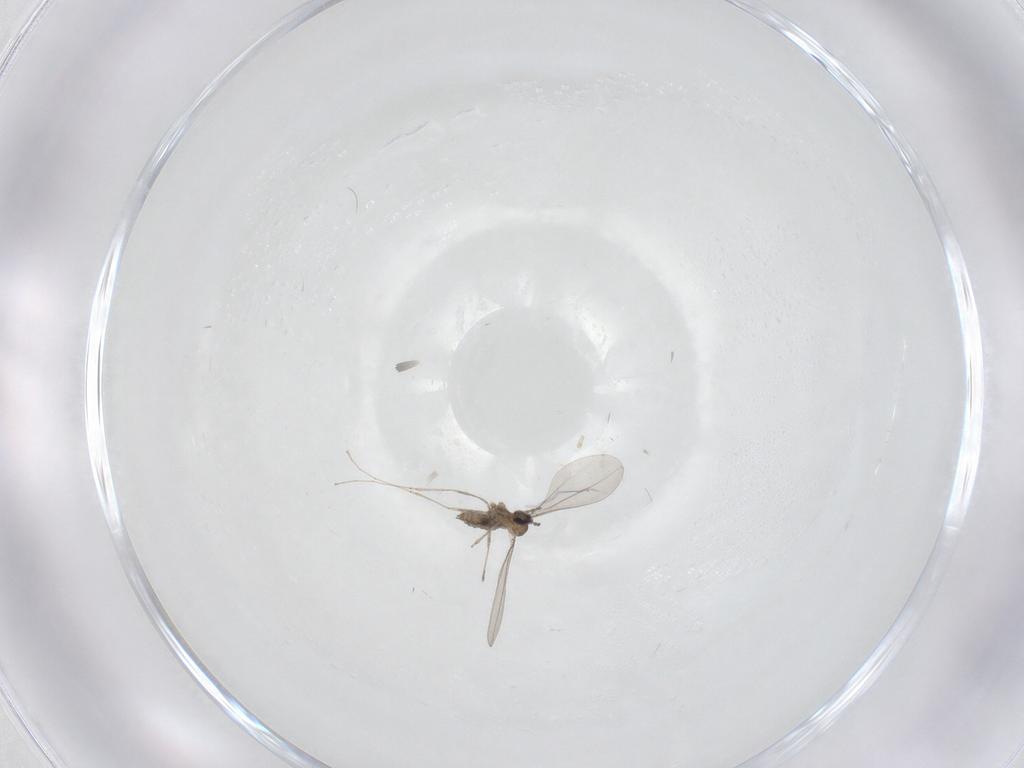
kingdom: Animalia
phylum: Arthropoda
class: Insecta
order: Diptera
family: Cecidomyiidae
